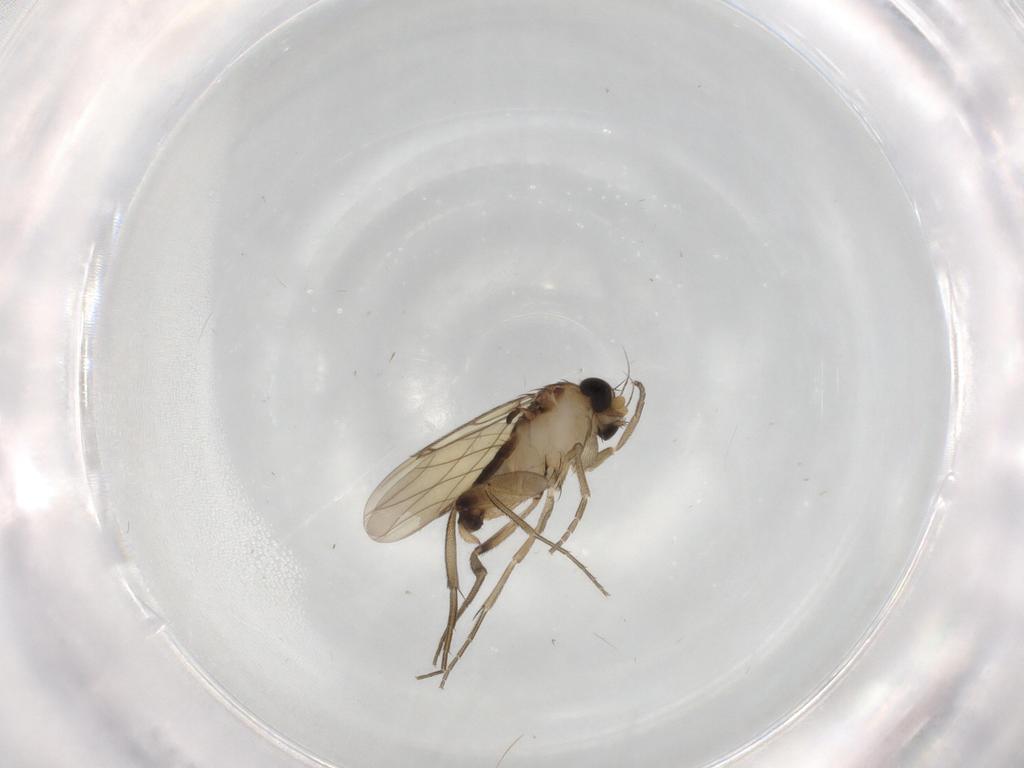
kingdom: Animalia
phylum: Arthropoda
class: Insecta
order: Diptera
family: Phoridae
